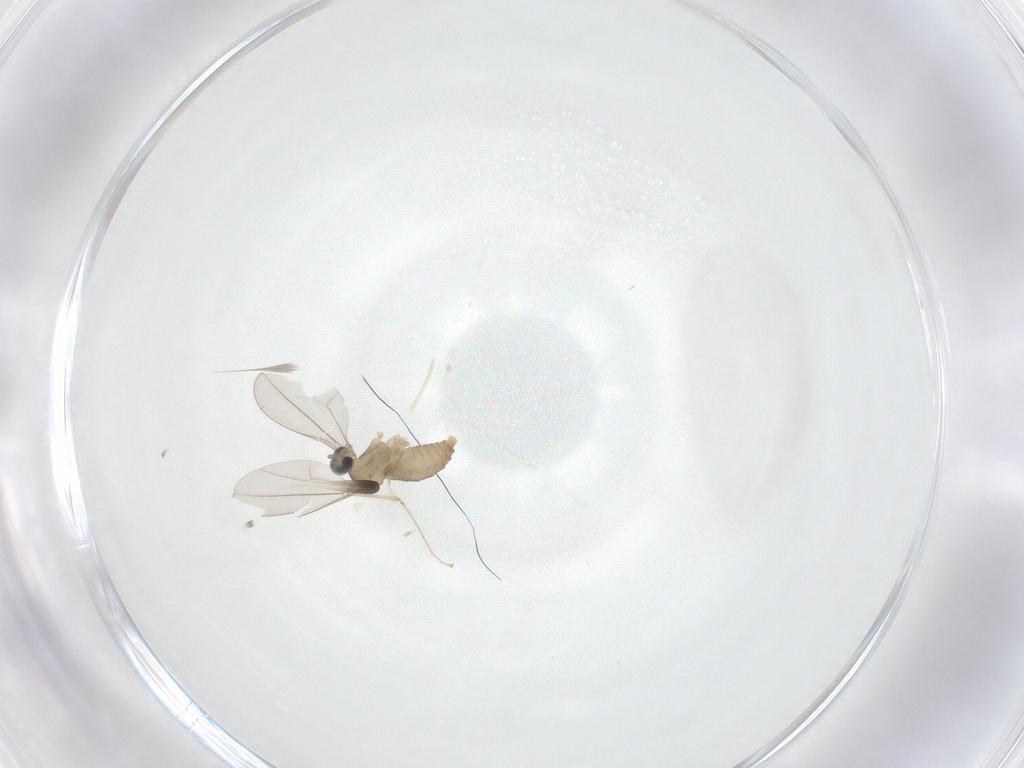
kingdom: Animalia
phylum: Arthropoda
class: Insecta
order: Diptera
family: Cecidomyiidae
